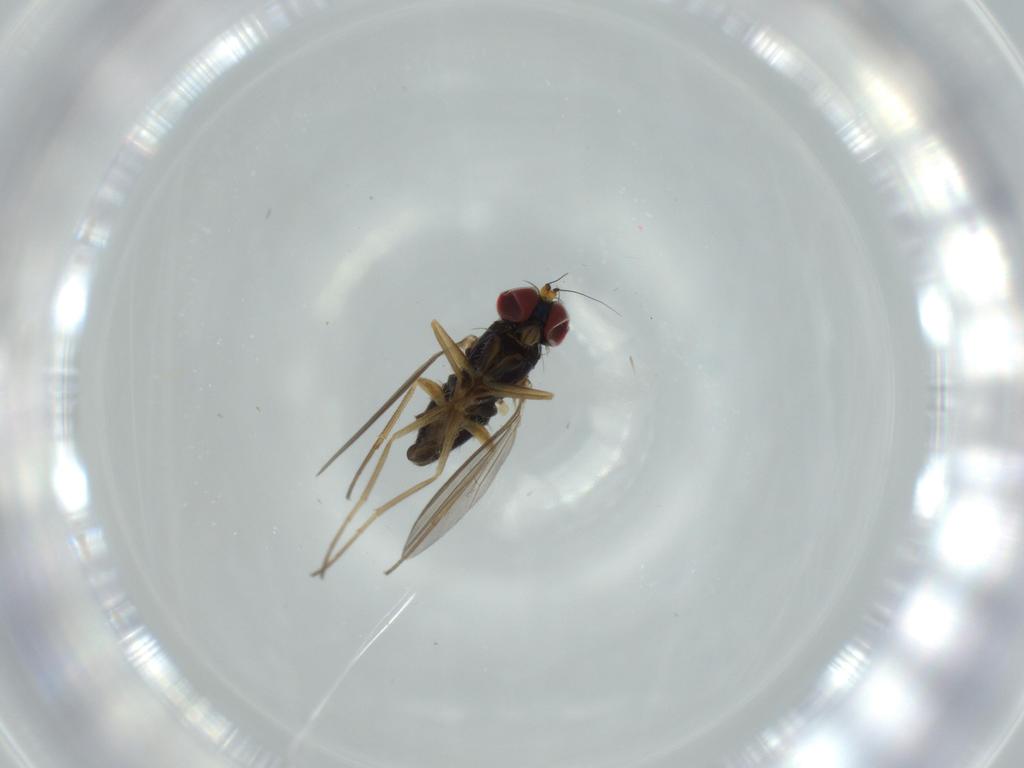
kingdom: Animalia
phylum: Arthropoda
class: Insecta
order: Diptera
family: Dolichopodidae
